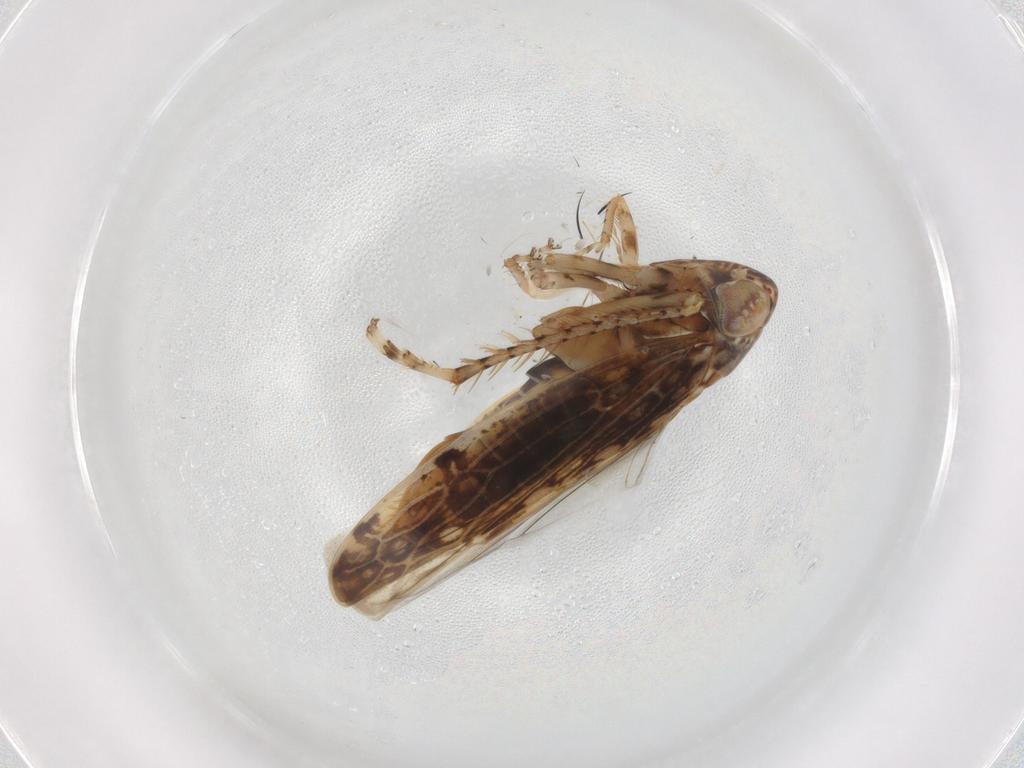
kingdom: Animalia
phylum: Arthropoda
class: Insecta
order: Hemiptera
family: Cicadellidae
